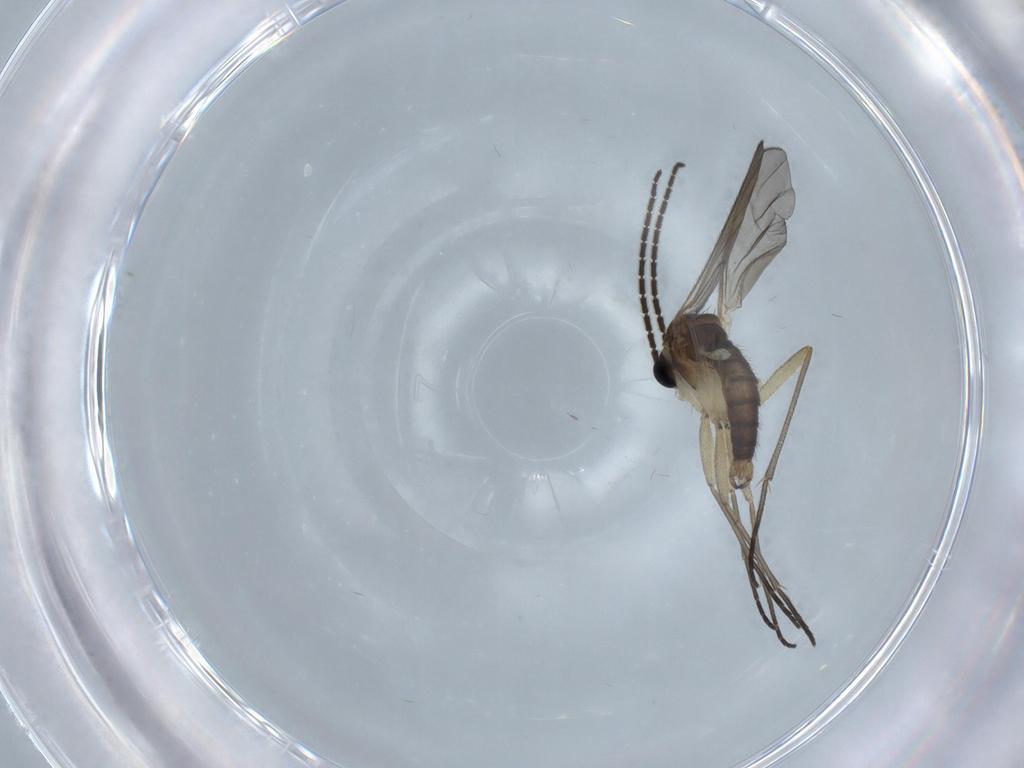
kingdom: Animalia
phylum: Arthropoda
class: Insecta
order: Diptera
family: Sciaridae
